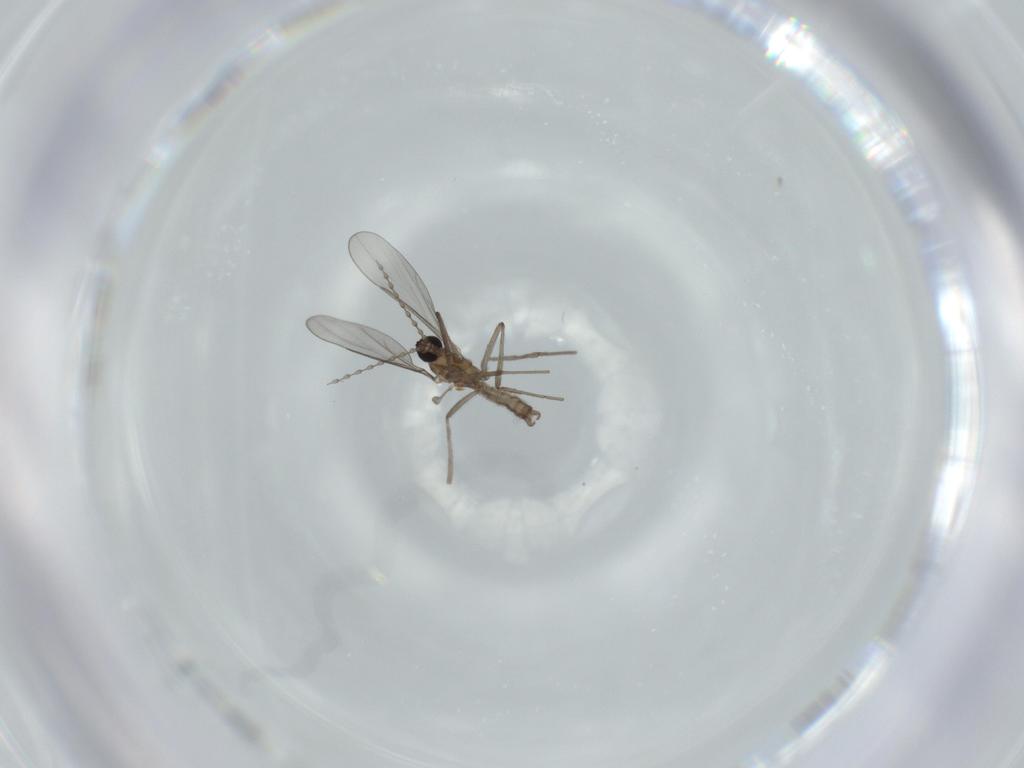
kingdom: Animalia
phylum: Arthropoda
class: Insecta
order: Diptera
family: Cecidomyiidae
